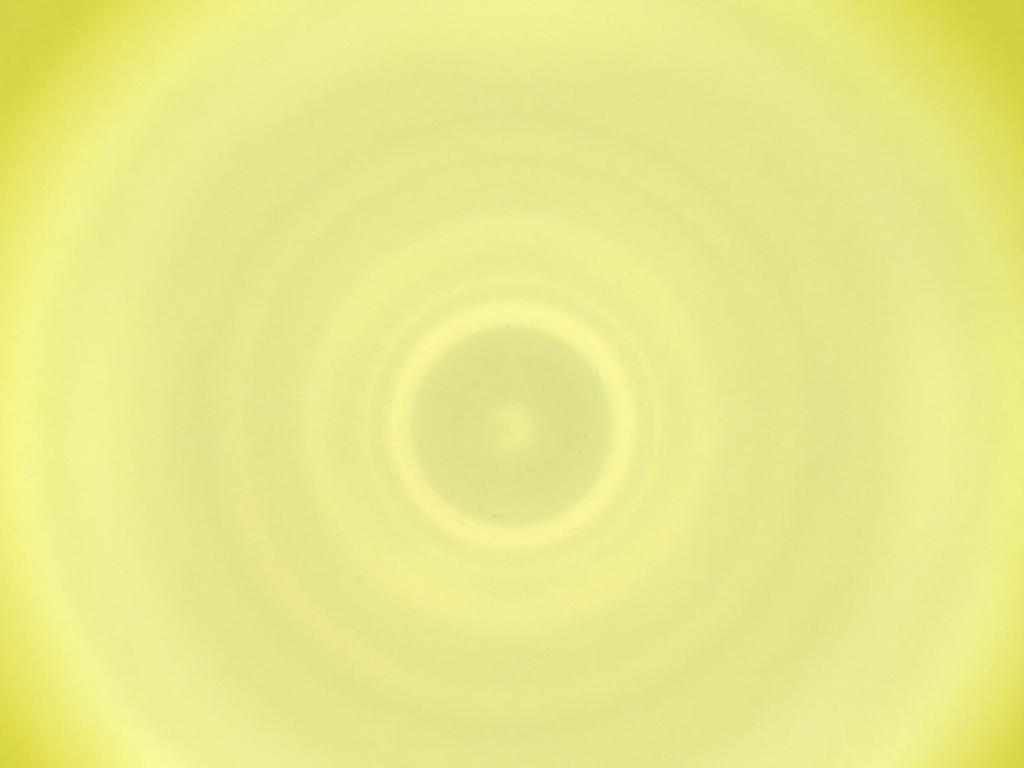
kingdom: Animalia
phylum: Arthropoda
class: Insecta
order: Diptera
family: Cecidomyiidae
